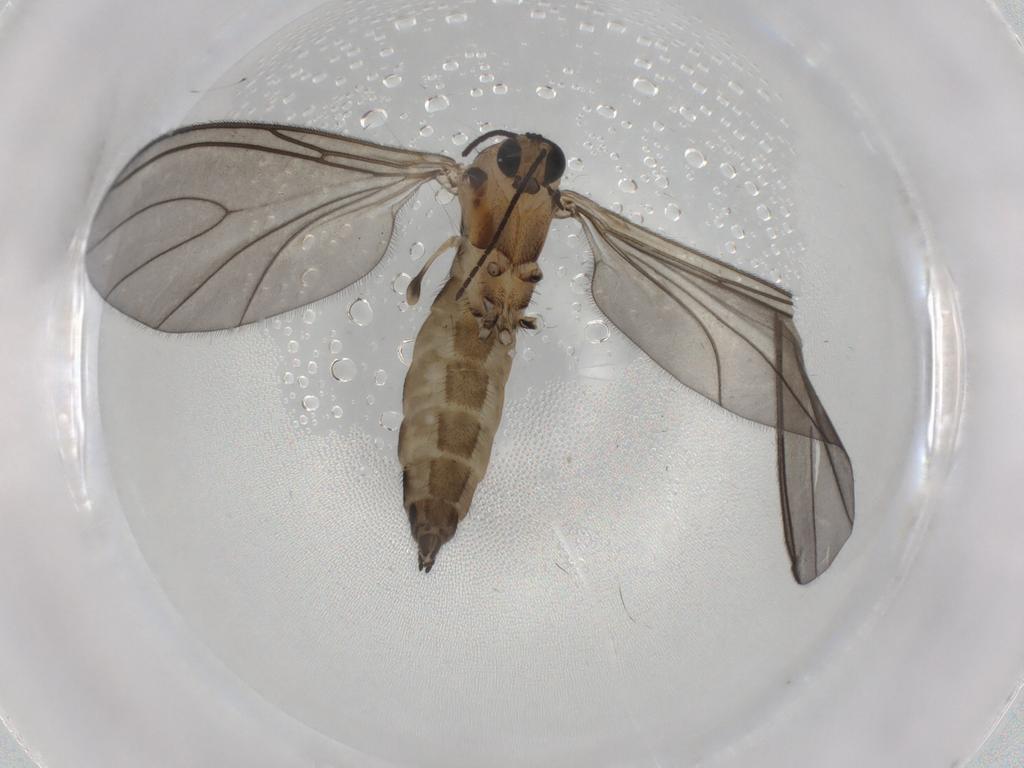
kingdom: Animalia
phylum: Arthropoda
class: Insecta
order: Diptera
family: Sciaridae
